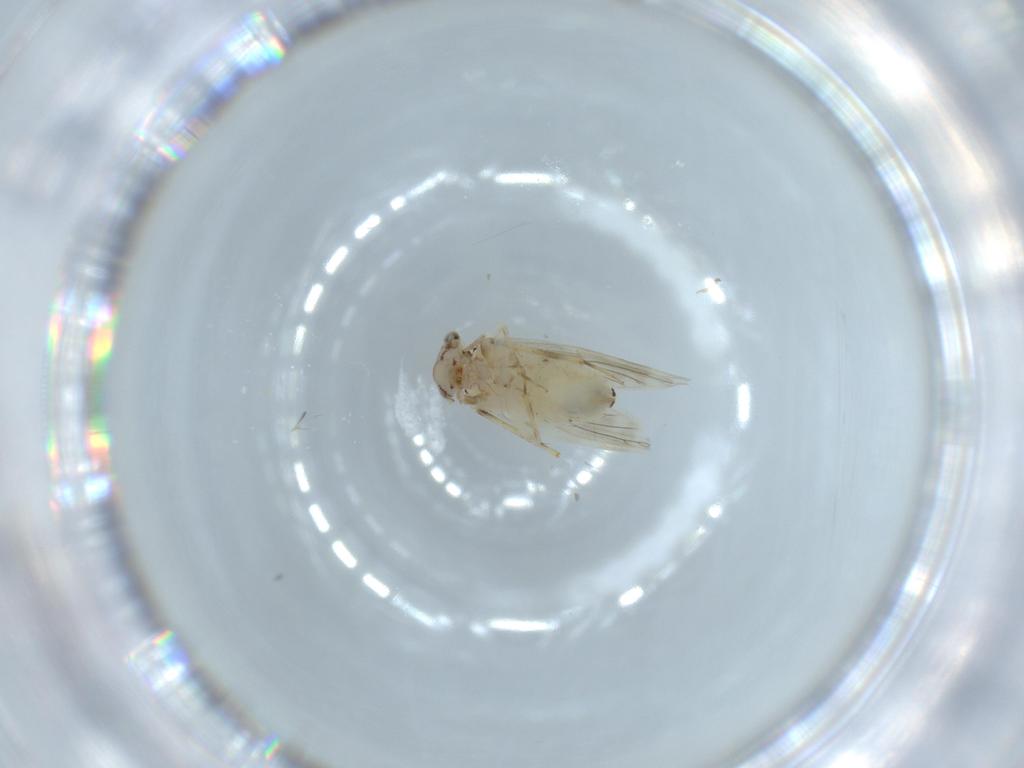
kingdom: Animalia
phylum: Arthropoda
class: Insecta
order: Psocodea
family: Lepidopsocidae
